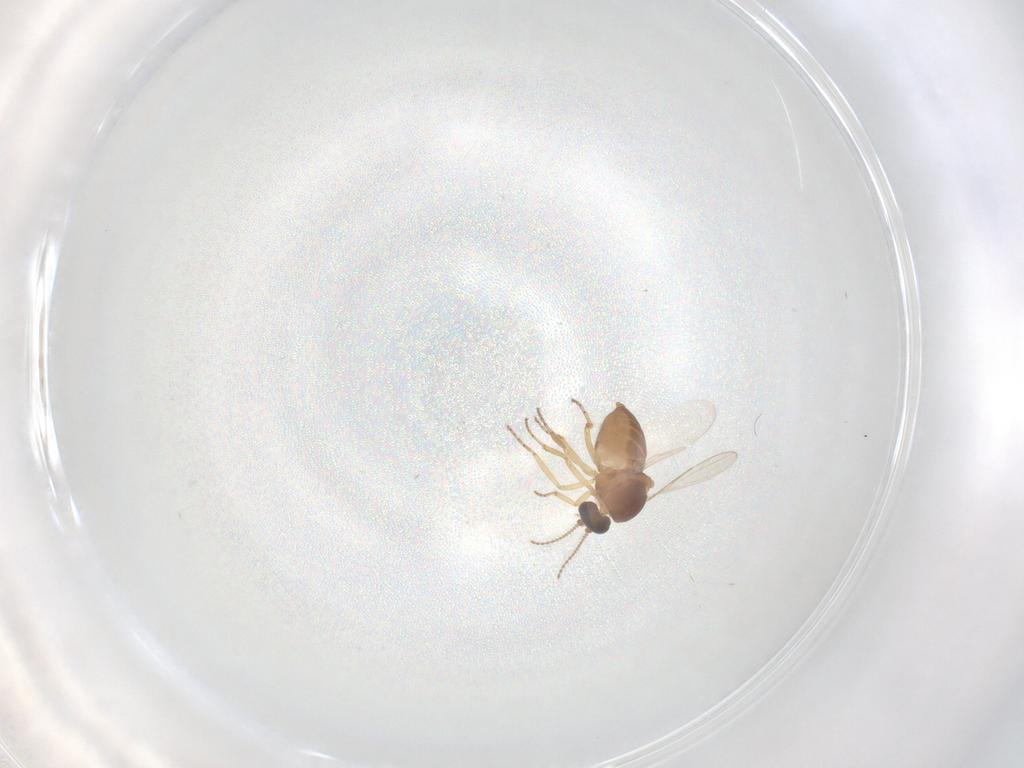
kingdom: Animalia
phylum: Arthropoda
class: Insecta
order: Diptera
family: Ceratopogonidae
